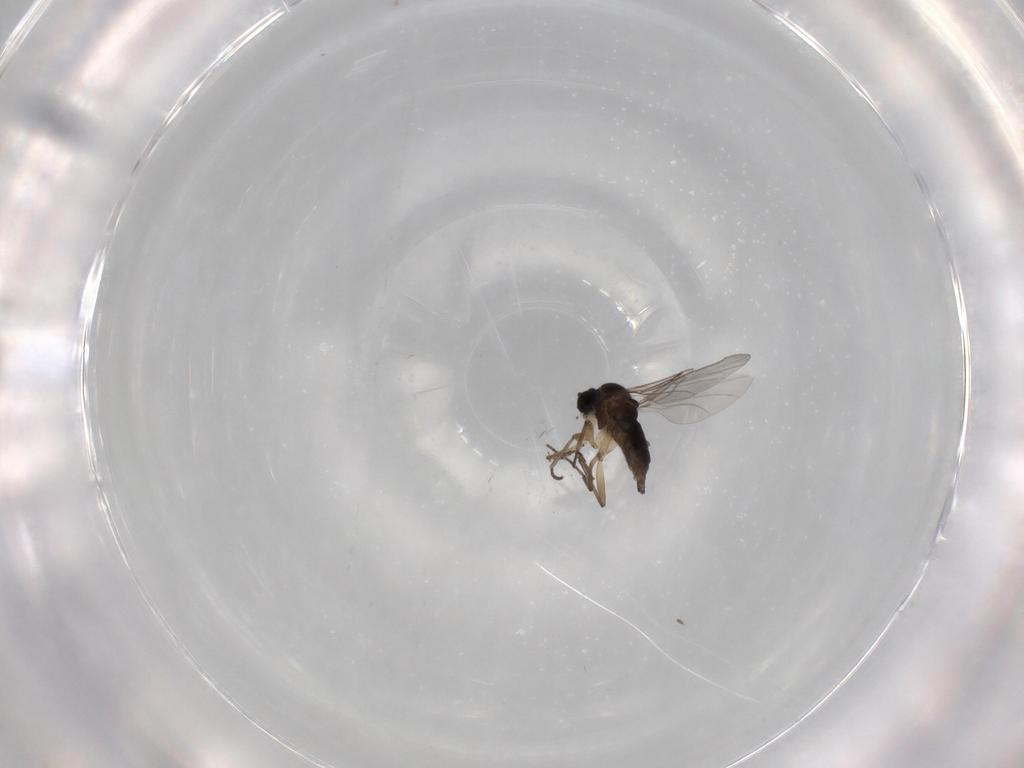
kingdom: Animalia
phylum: Arthropoda
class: Insecta
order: Diptera
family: Sciaridae
